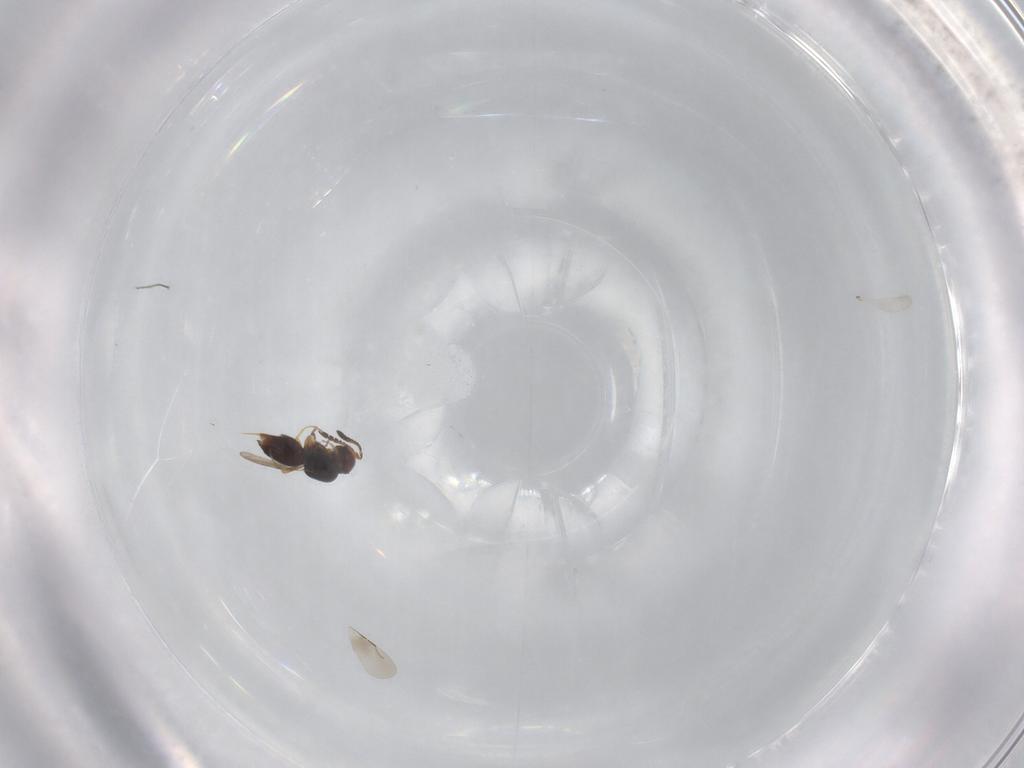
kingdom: Animalia
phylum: Arthropoda
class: Insecta
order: Hymenoptera
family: Ceraphronidae
